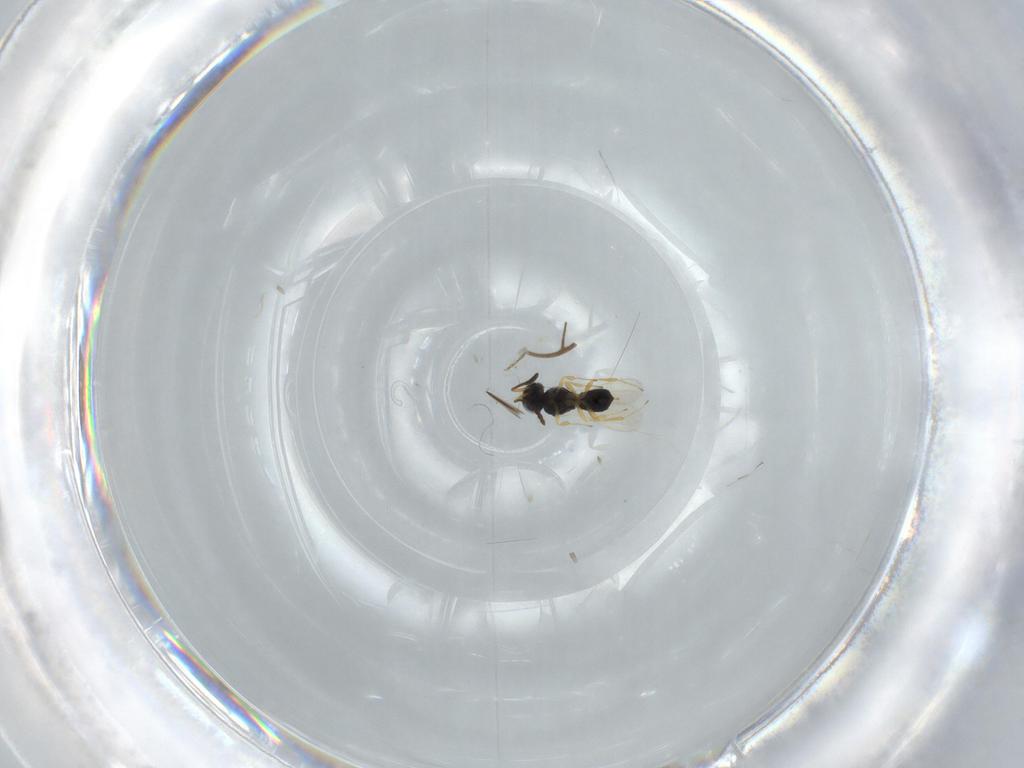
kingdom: Animalia
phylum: Arthropoda
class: Insecta
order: Hymenoptera
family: Scelionidae
